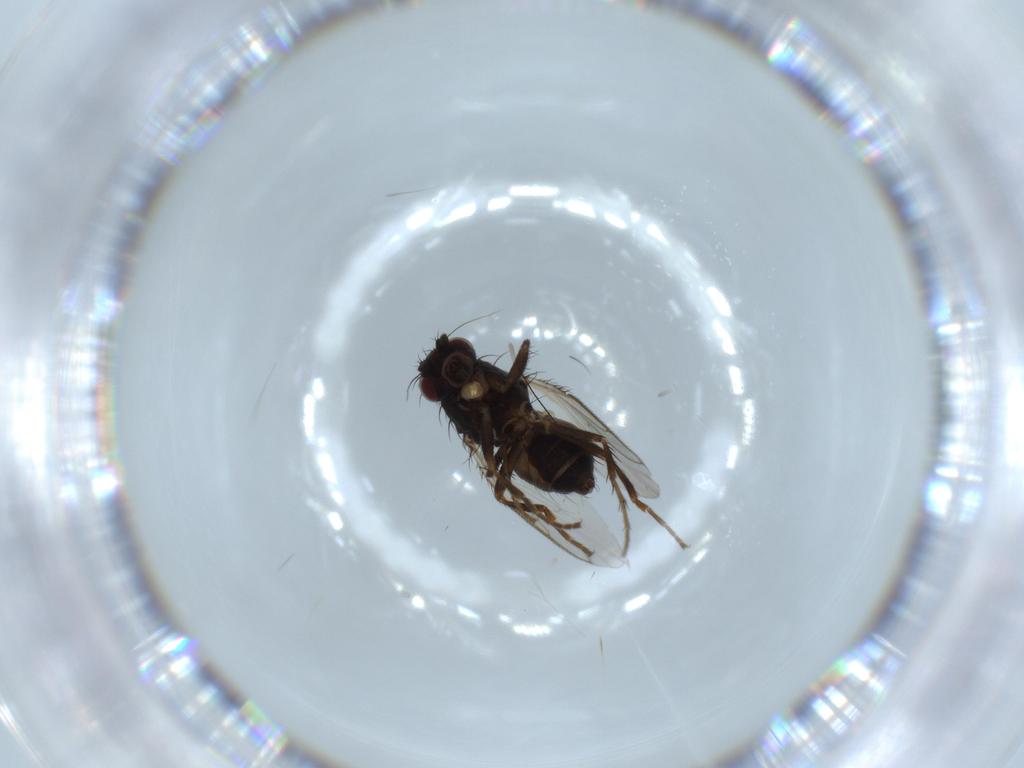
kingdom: Animalia
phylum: Arthropoda
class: Insecta
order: Diptera
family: Sphaeroceridae
